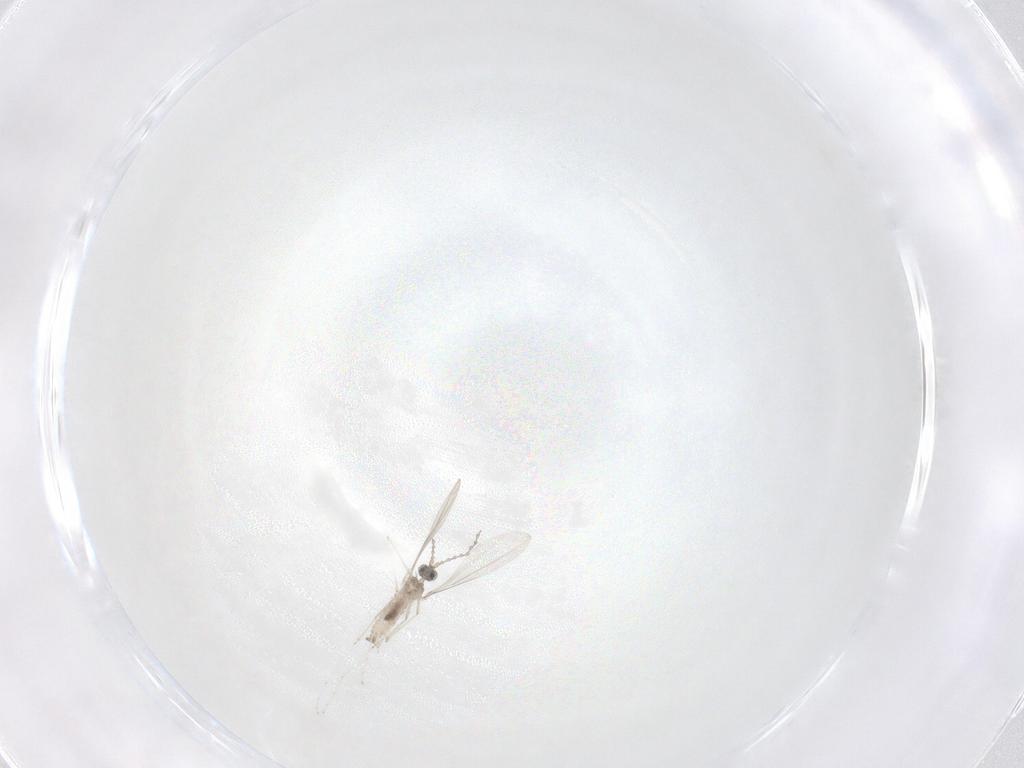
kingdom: Animalia
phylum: Arthropoda
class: Insecta
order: Diptera
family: Cecidomyiidae
